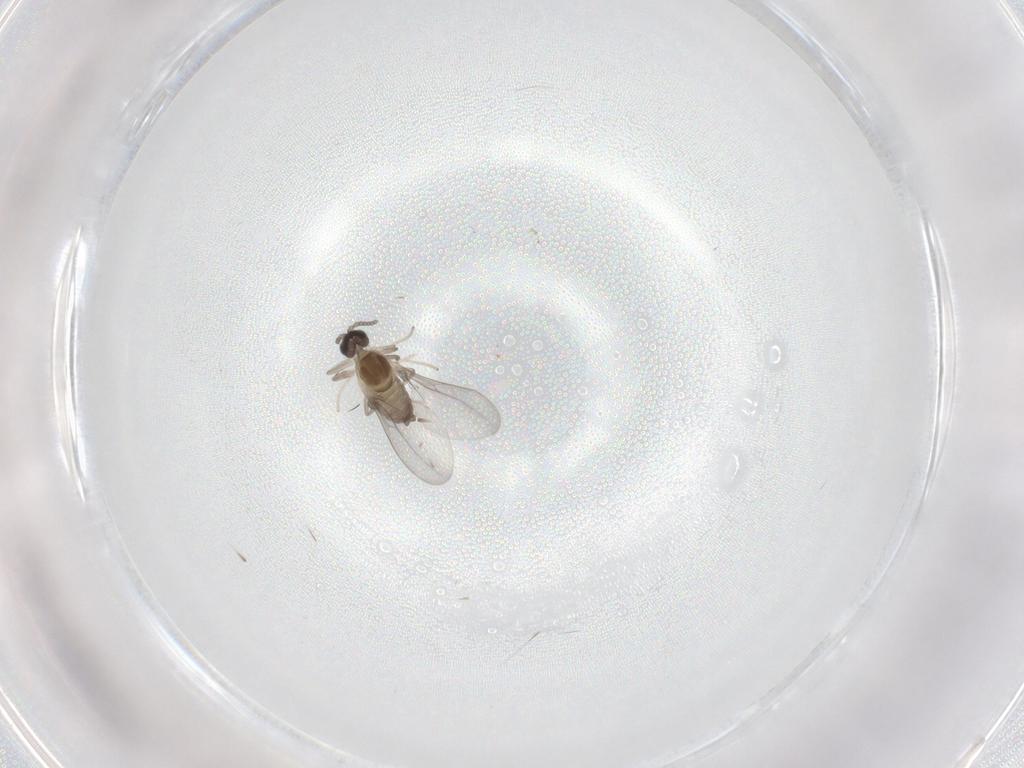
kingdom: Animalia
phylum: Arthropoda
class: Insecta
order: Diptera
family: Cecidomyiidae
